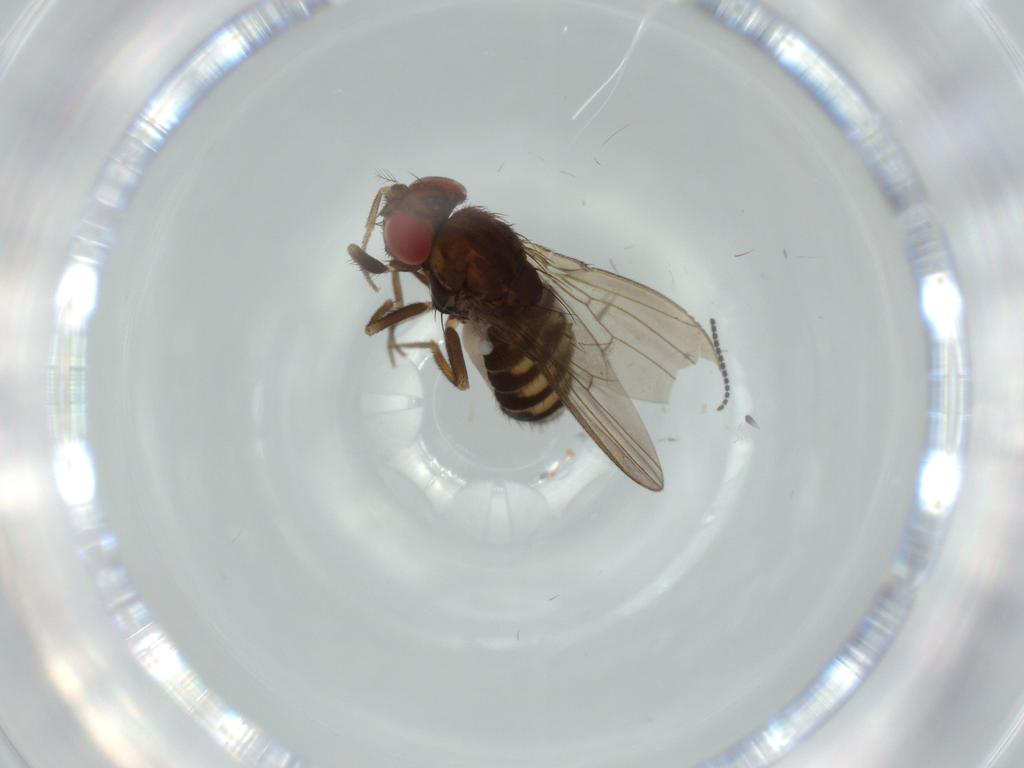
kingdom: Animalia
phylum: Arthropoda
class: Insecta
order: Diptera
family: Phoridae
